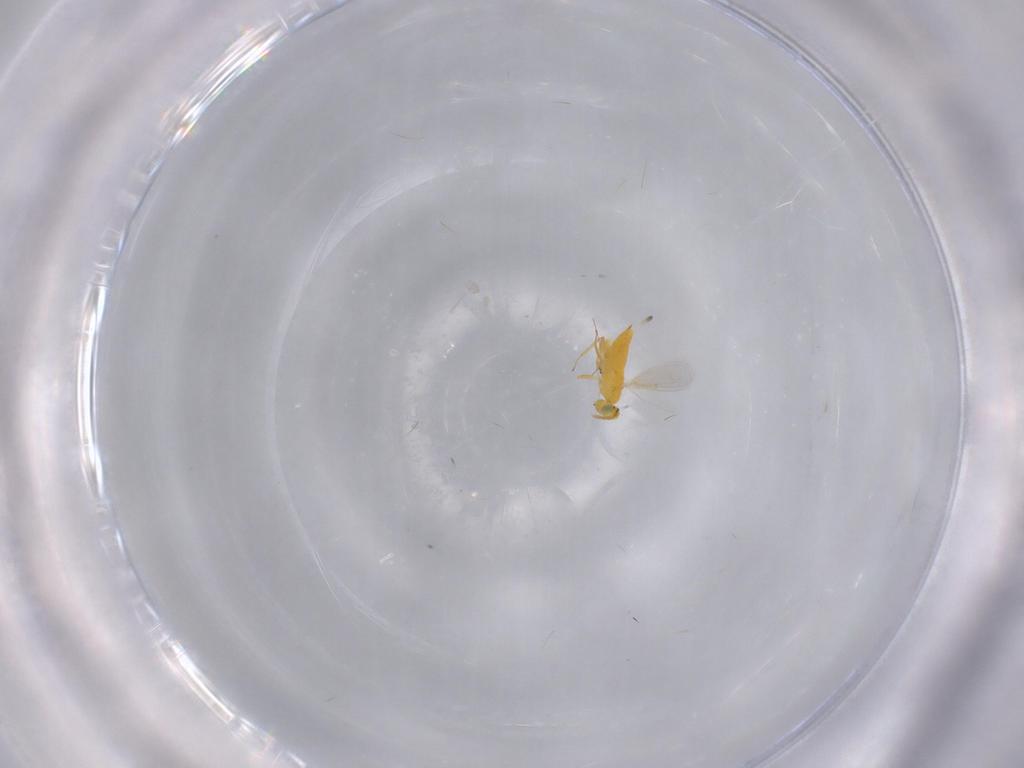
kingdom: Animalia
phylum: Arthropoda
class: Insecta
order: Hymenoptera
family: Aphelinidae
